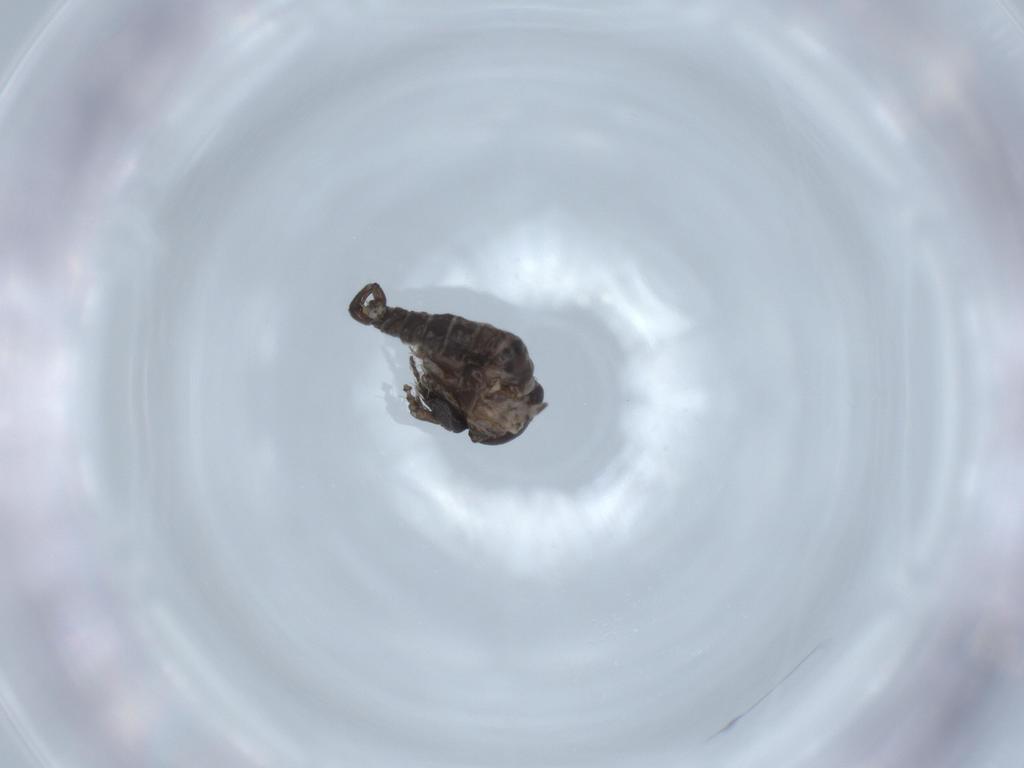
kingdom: Animalia
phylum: Arthropoda
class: Insecta
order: Diptera
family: Psychodidae
